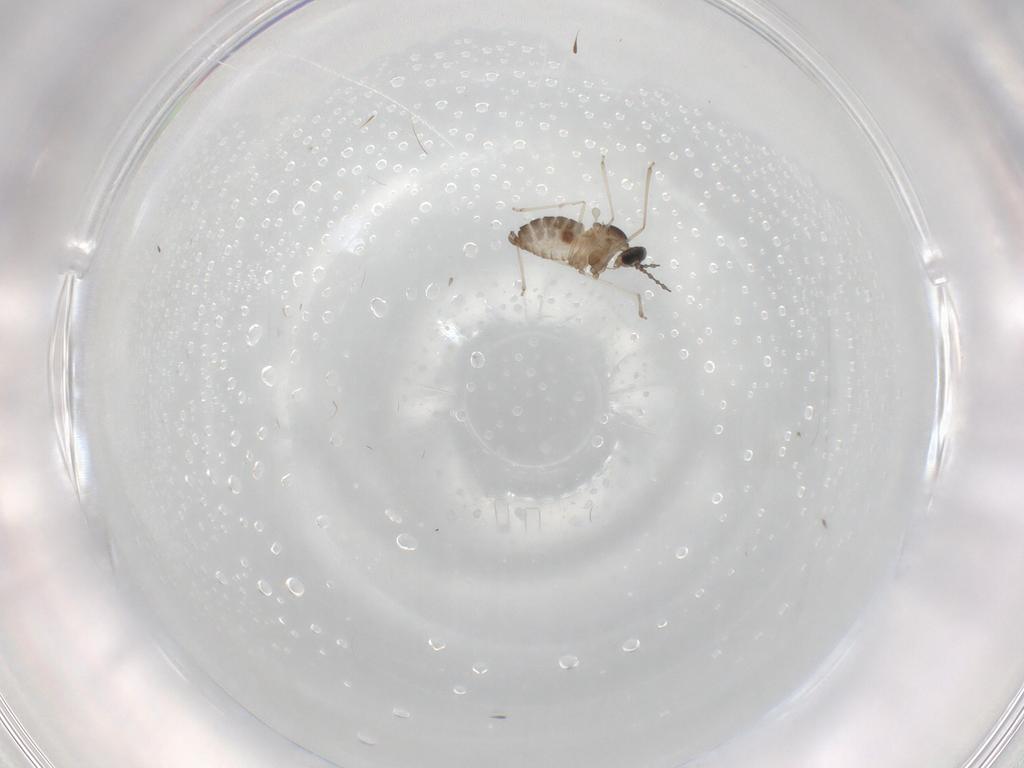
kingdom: Animalia
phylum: Arthropoda
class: Insecta
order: Diptera
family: Cecidomyiidae
